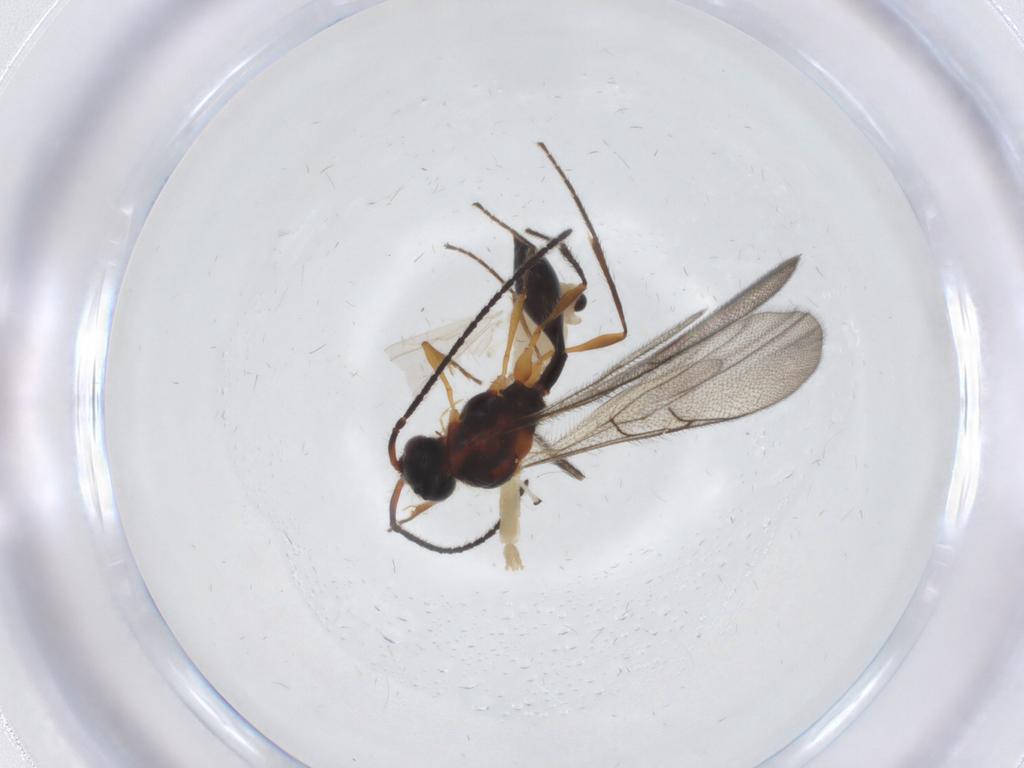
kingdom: Animalia
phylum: Arthropoda
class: Insecta
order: Diptera
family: Chironomidae
